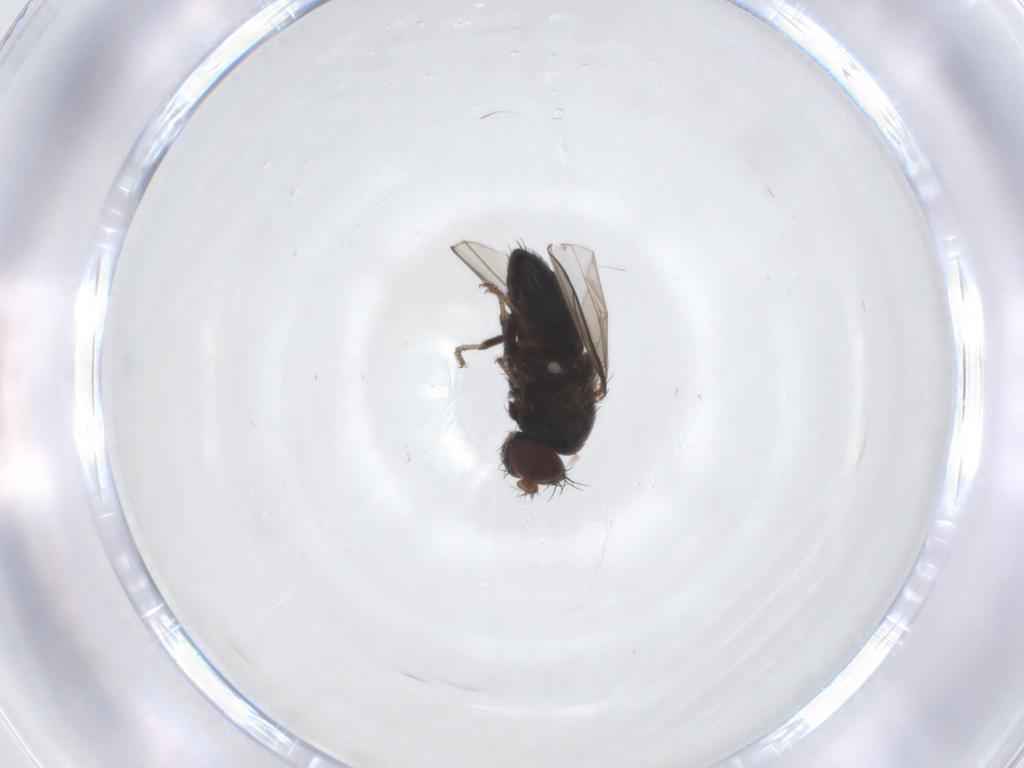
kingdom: Animalia
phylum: Arthropoda
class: Insecta
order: Diptera
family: Ephydridae
